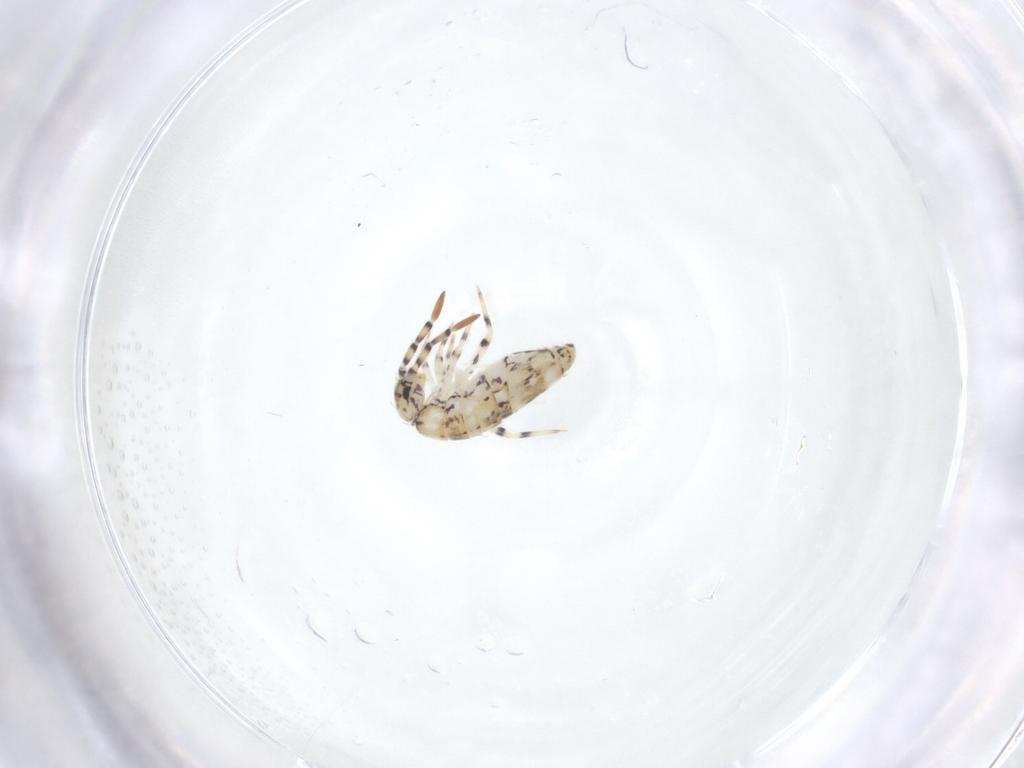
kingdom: Animalia
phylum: Arthropoda
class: Collembola
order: Entomobryomorpha
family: Entomobryidae
